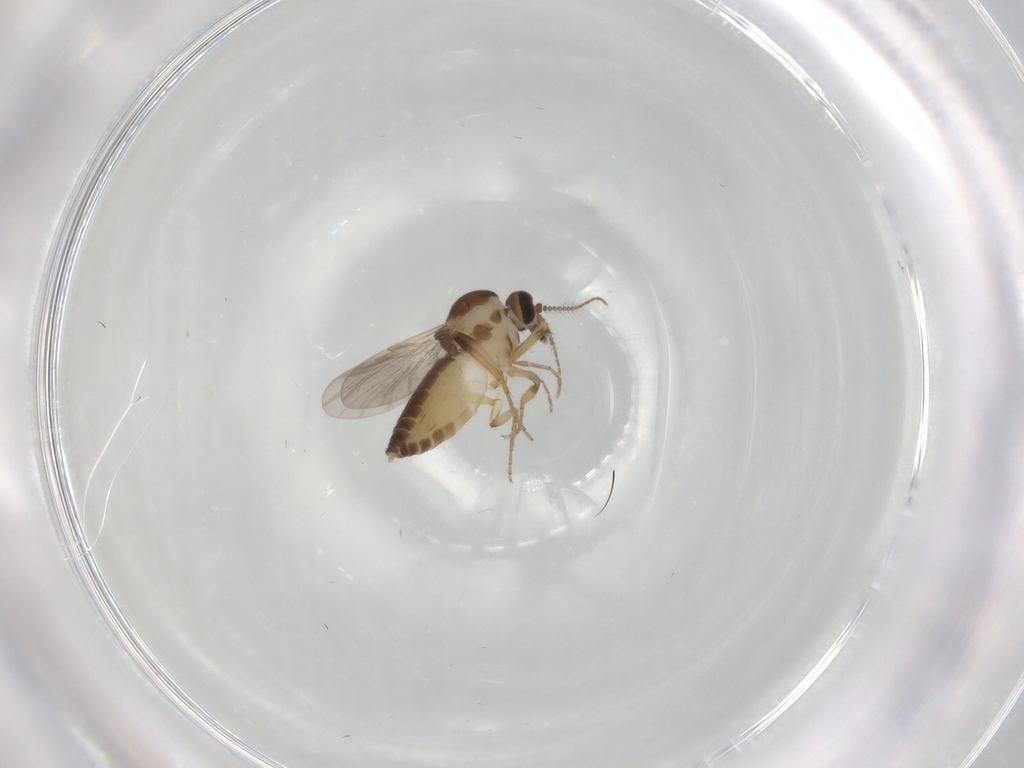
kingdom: Animalia
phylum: Arthropoda
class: Insecta
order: Diptera
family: Ceratopogonidae
